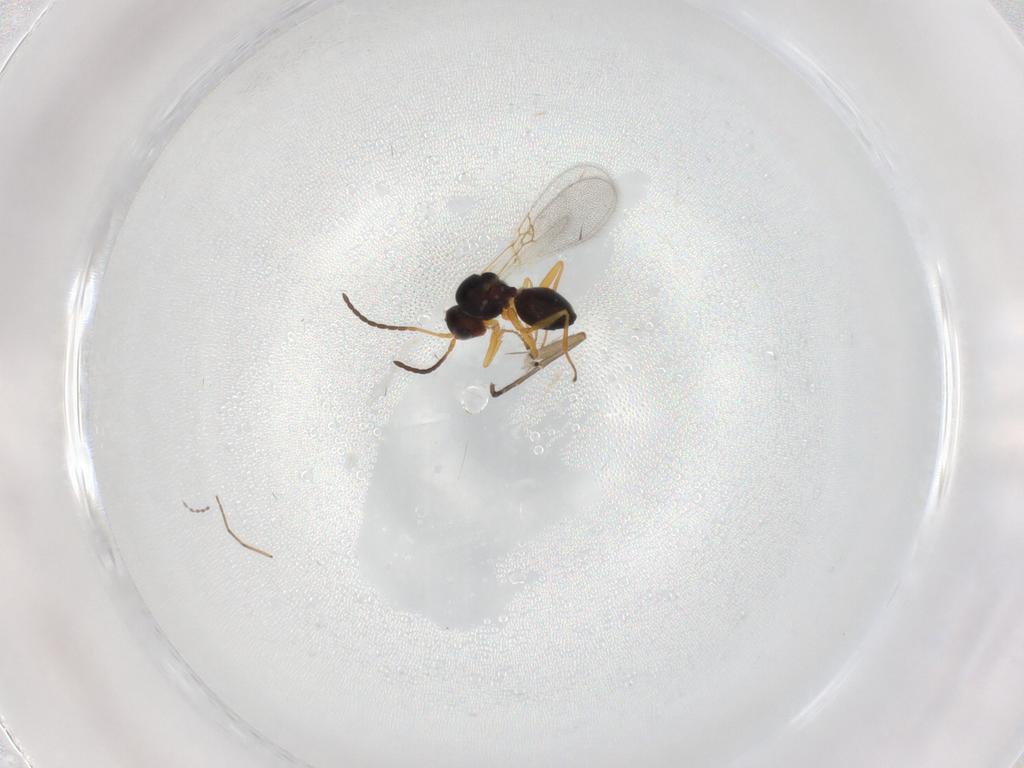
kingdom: Animalia
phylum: Arthropoda
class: Insecta
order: Hymenoptera
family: Figitidae
